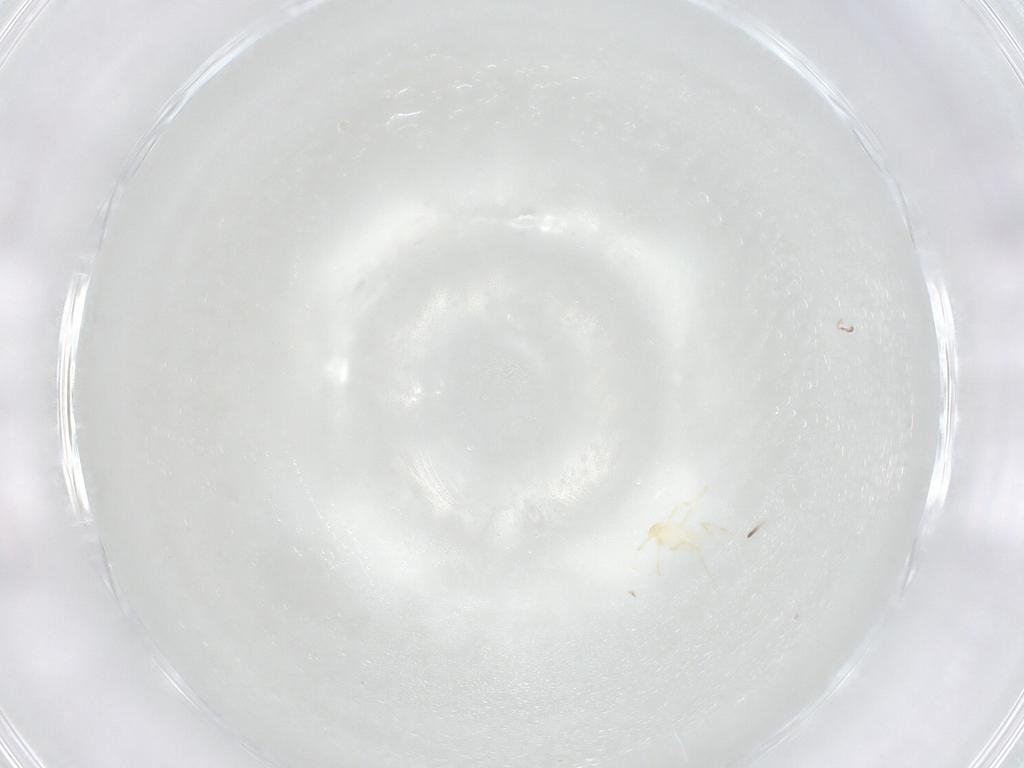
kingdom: Animalia
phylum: Arthropoda
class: Arachnida
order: Trombidiformes
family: Erythraeidae
